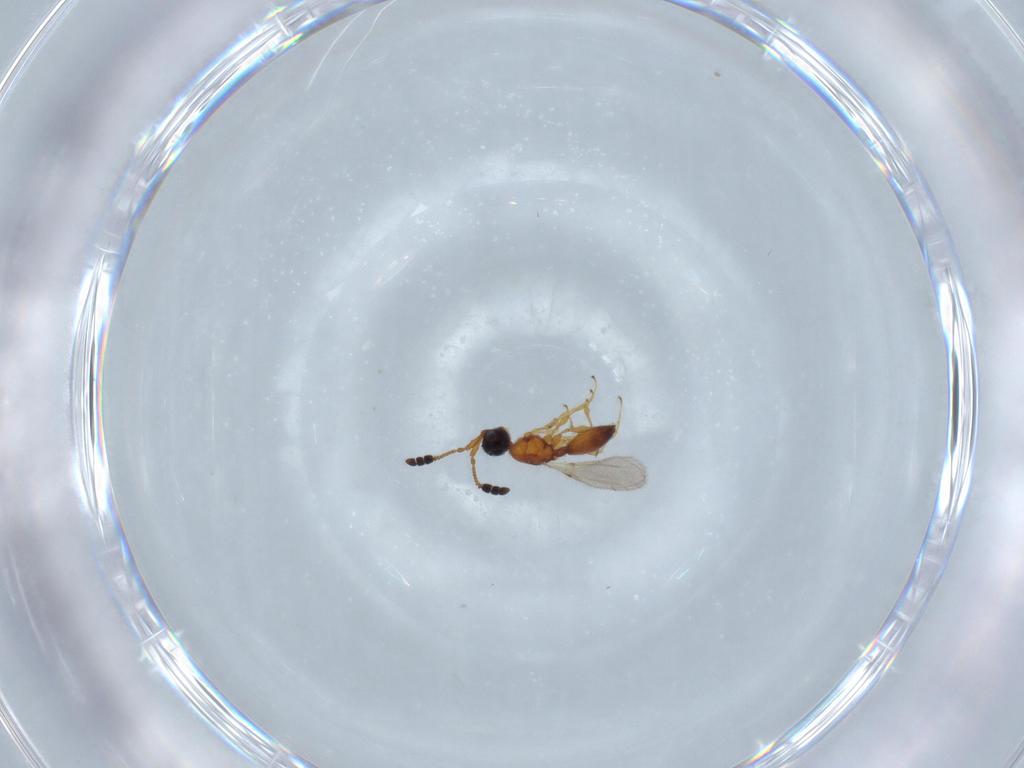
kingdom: Animalia
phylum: Arthropoda
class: Insecta
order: Hymenoptera
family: Diapriidae
